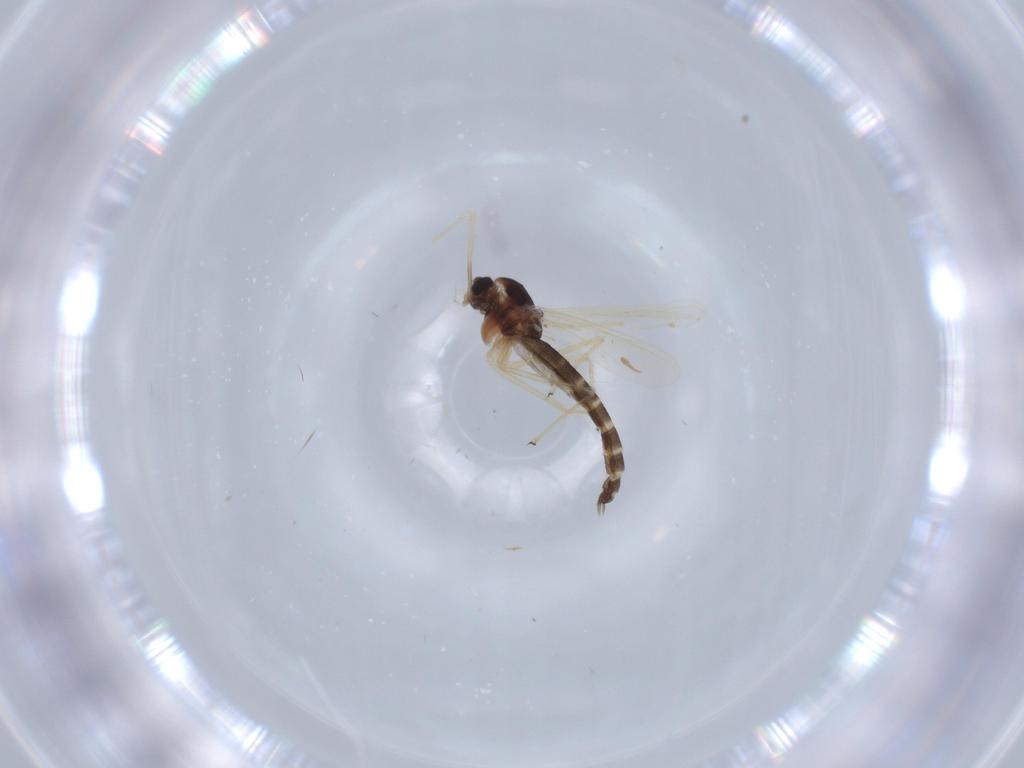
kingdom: Animalia
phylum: Arthropoda
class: Insecta
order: Diptera
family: Chironomidae
